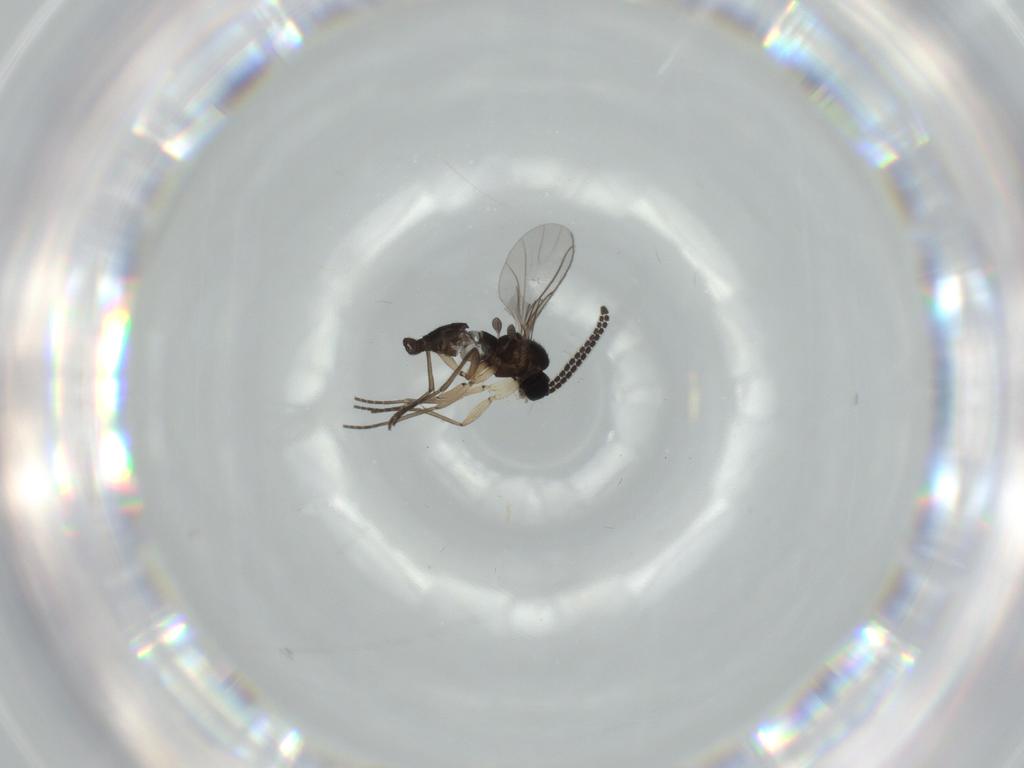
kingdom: Animalia
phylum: Arthropoda
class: Insecta
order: Diptera
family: Sciaridae
